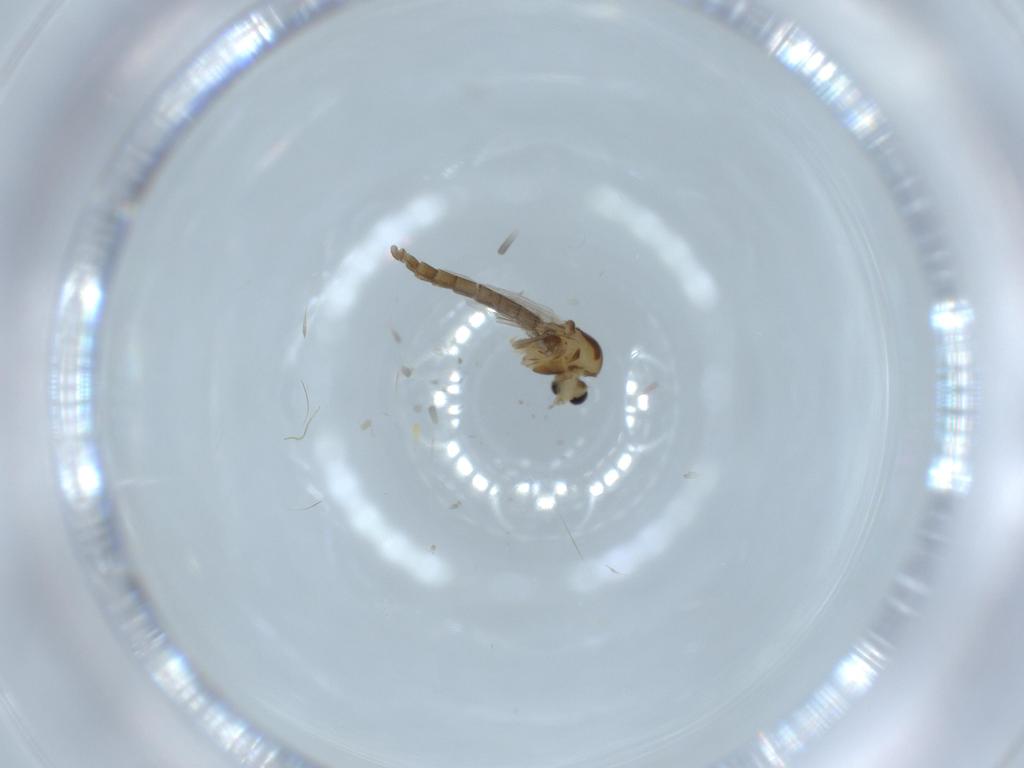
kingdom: Animalia
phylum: Arthropoda
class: Insecta
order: Diptera
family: Chironomidae
